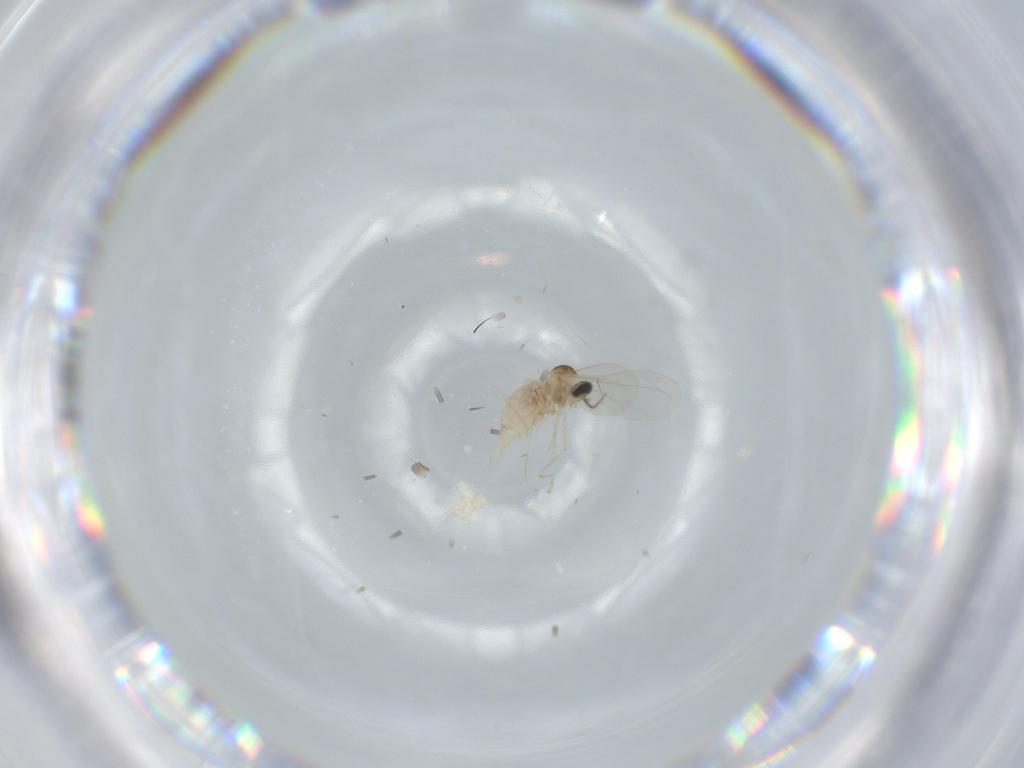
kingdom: Animalia
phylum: Arthropoda
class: Insecta
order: Diptera
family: Cecidomyiidae
